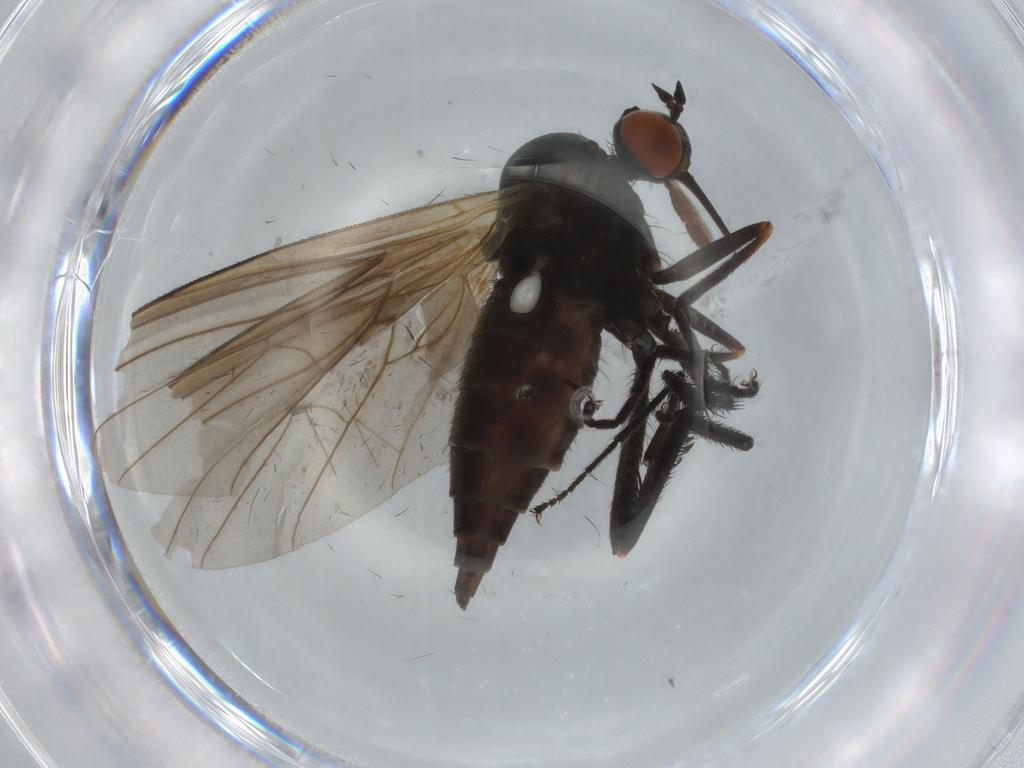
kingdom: Animalia
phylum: Arthropoda
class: Insecta
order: Diptera
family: Empididae
